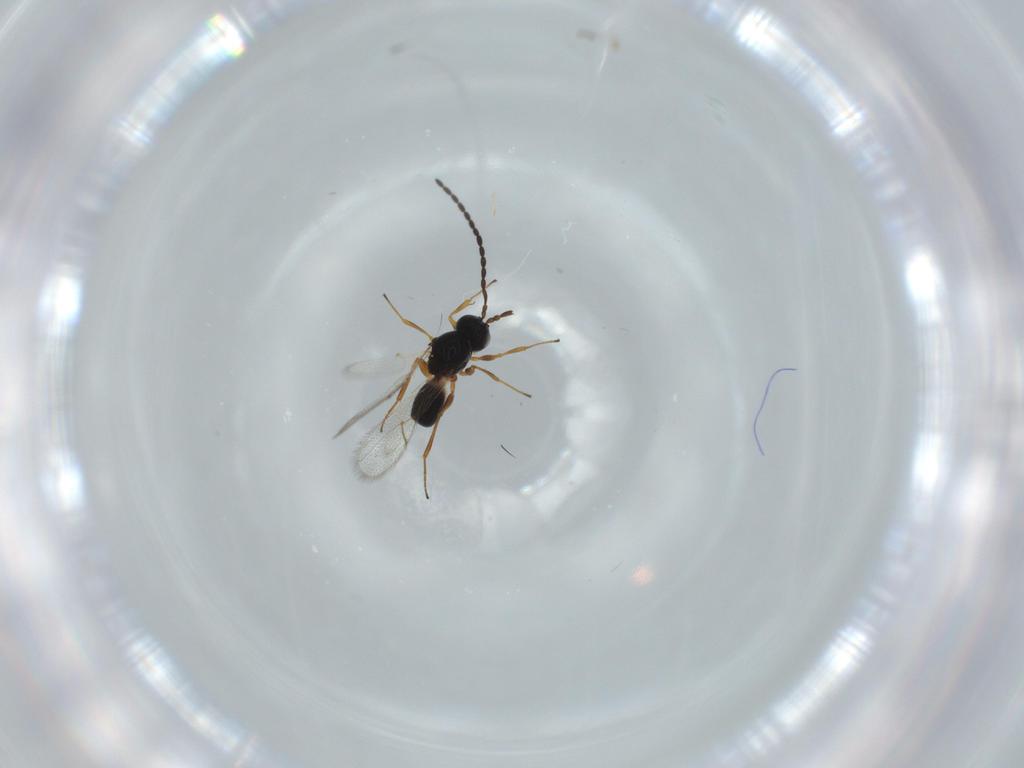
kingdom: Animalia
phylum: Arthropoda
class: Insecta
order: Hymenoptera
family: Figitidae
